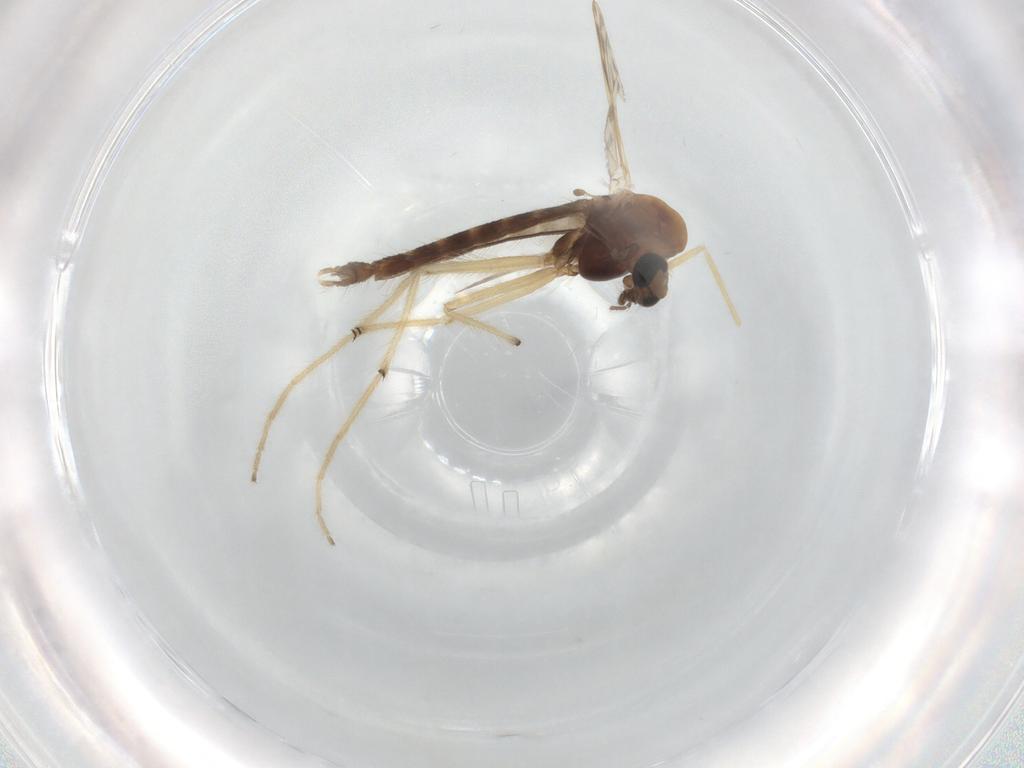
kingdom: Animalia
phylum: Arthropoda
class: Insecta
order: Diptera
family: Chironomidae
